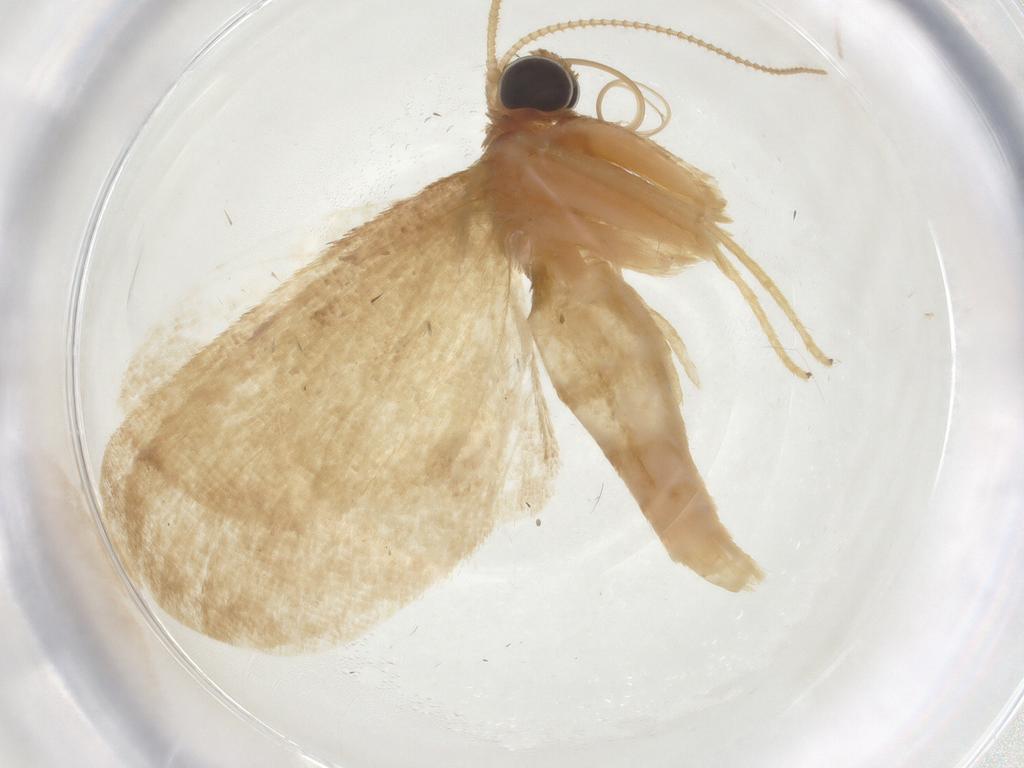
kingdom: Animalia
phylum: Arthropoda
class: Insecta
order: Lepidoptera
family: Geometridae
